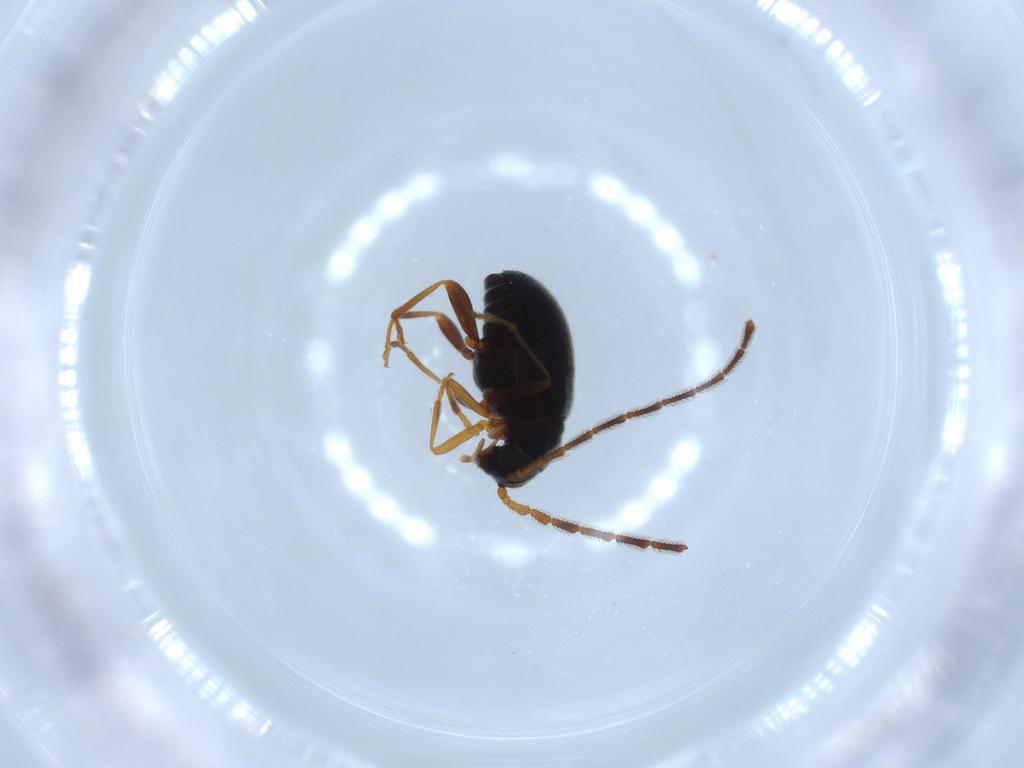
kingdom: Animalia
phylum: Arthropoda
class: Insecta
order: Coleoptera
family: Aderidae
